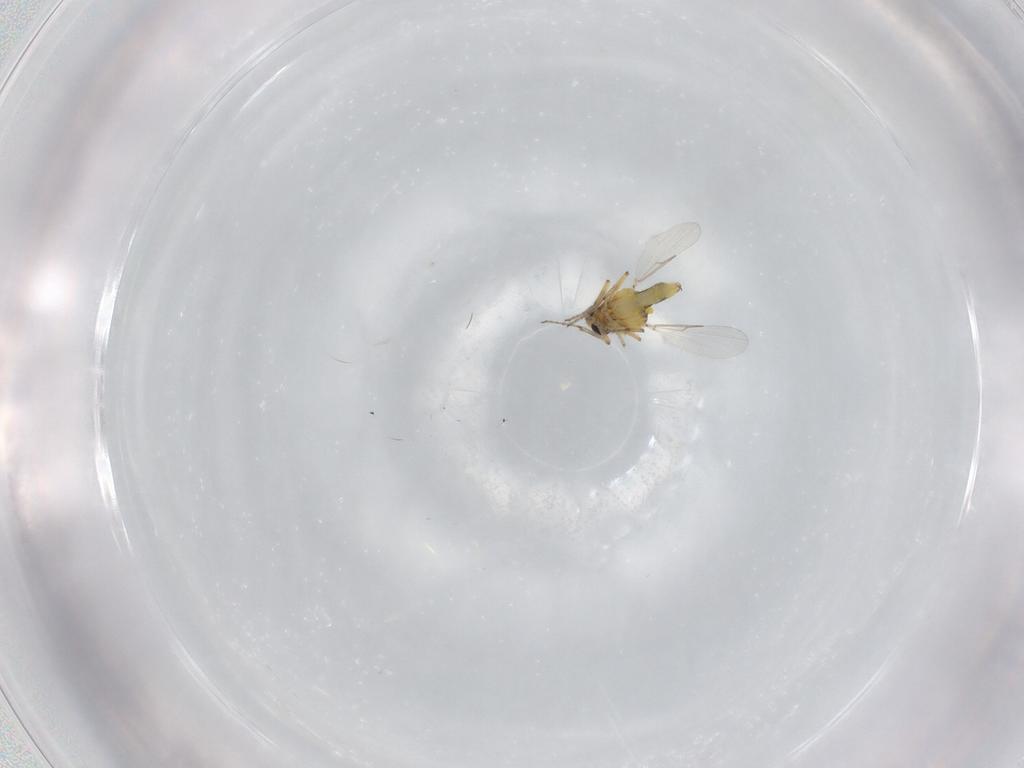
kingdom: Animalia
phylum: Arthropoda
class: Insecta
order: Diptera
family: Ceratopogonidae
